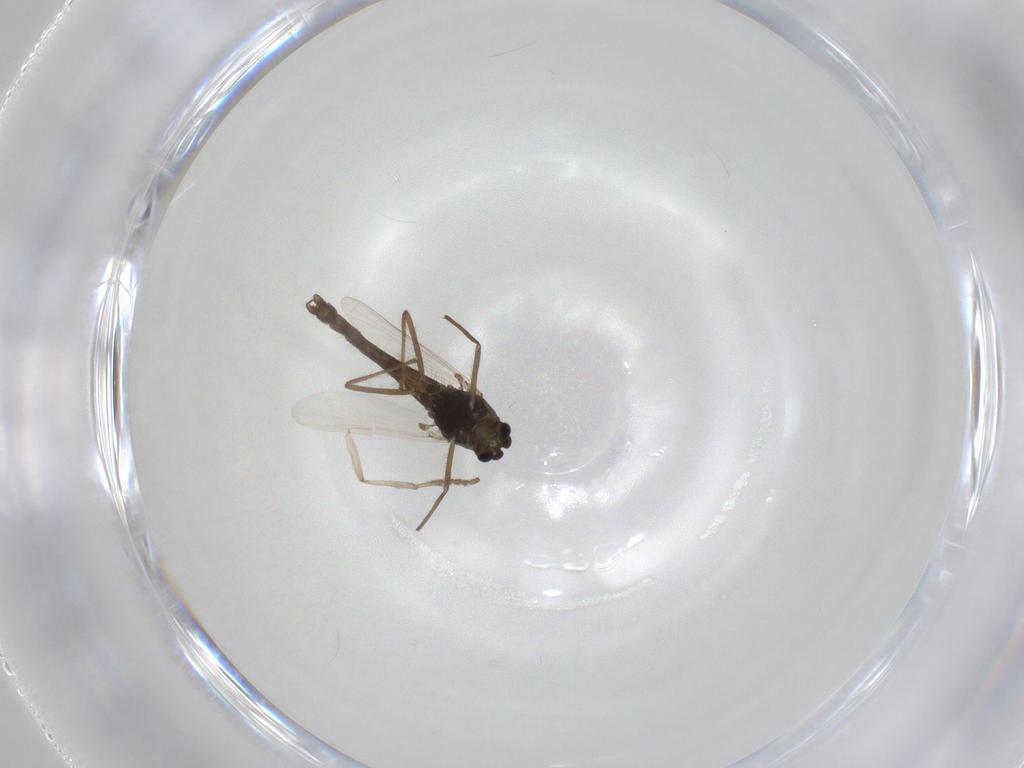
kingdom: Animalia
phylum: Arthropoda
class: Insecta
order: Diptera
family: Chironomidae
